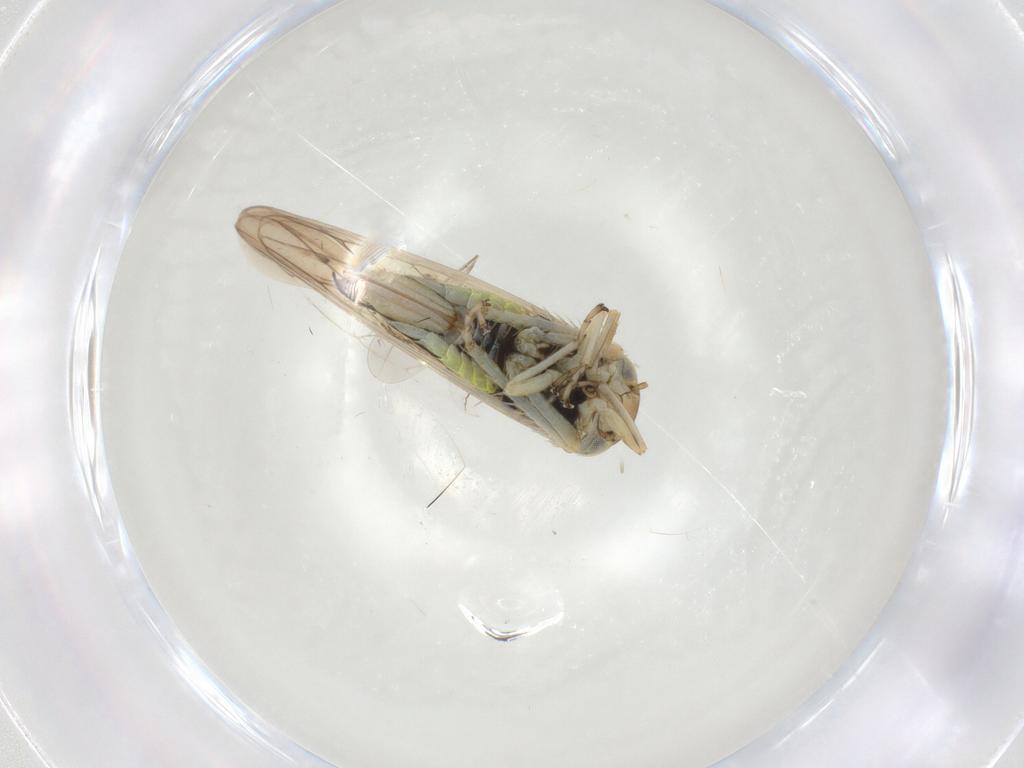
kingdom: Animalia
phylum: Arthropoda
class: Insecta
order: Hemiptera
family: Cicadellidae
